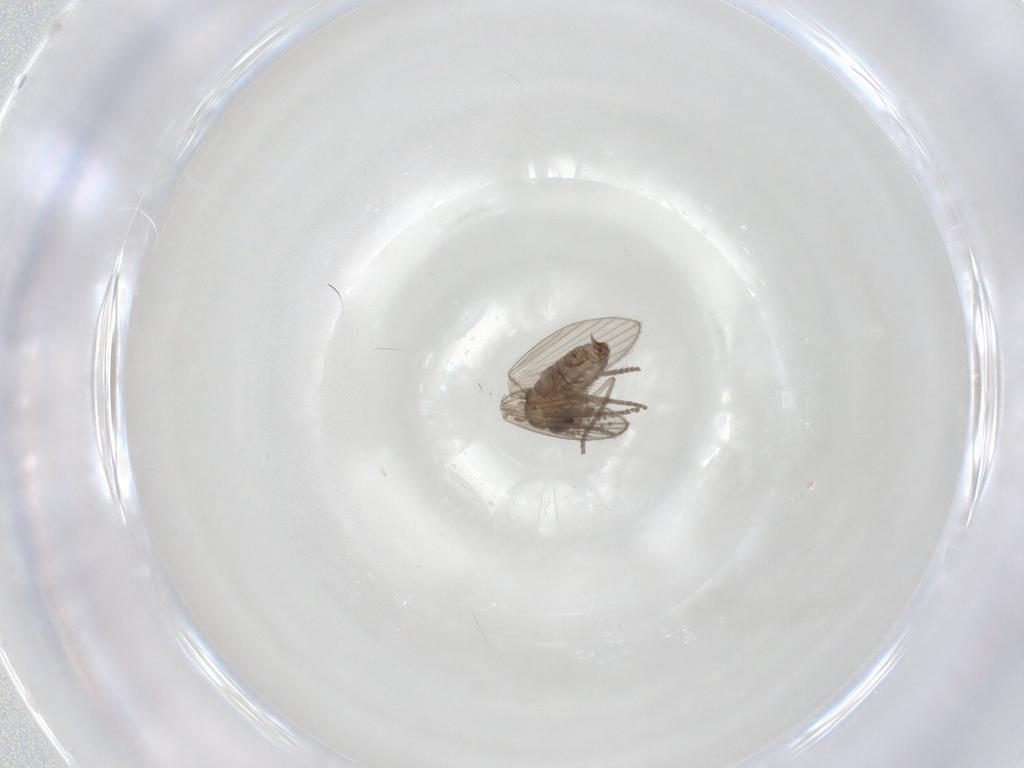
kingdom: Animalia
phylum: Arthropoda
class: Insecta
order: Diptera
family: Psychodidae
